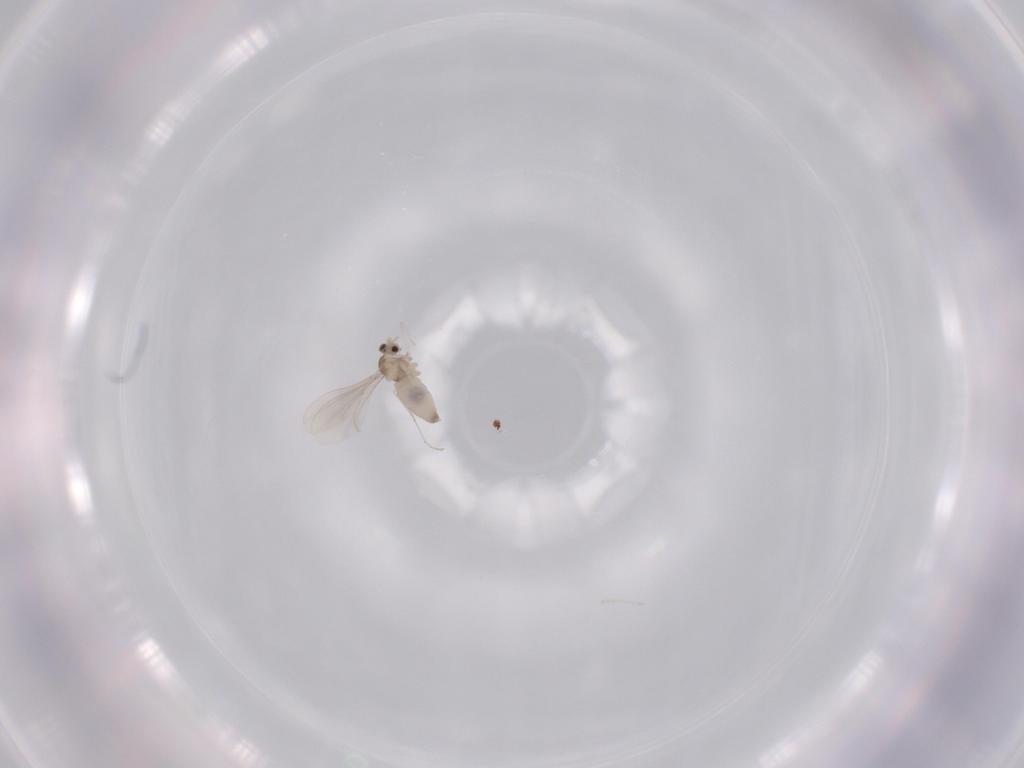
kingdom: Animalia
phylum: Arthropoda
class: Insecta
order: Diptera
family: Cecidomyiidae
